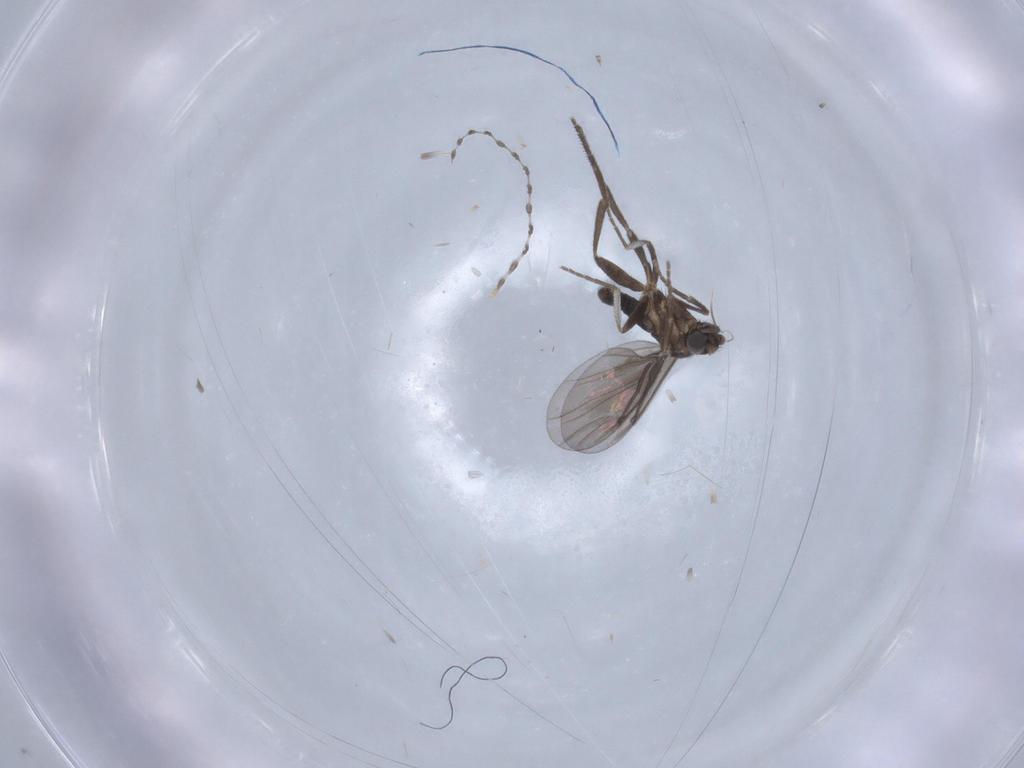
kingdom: Animalia
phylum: Arthropoda
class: Insecta
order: Diptera
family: Cecidomyiidae
